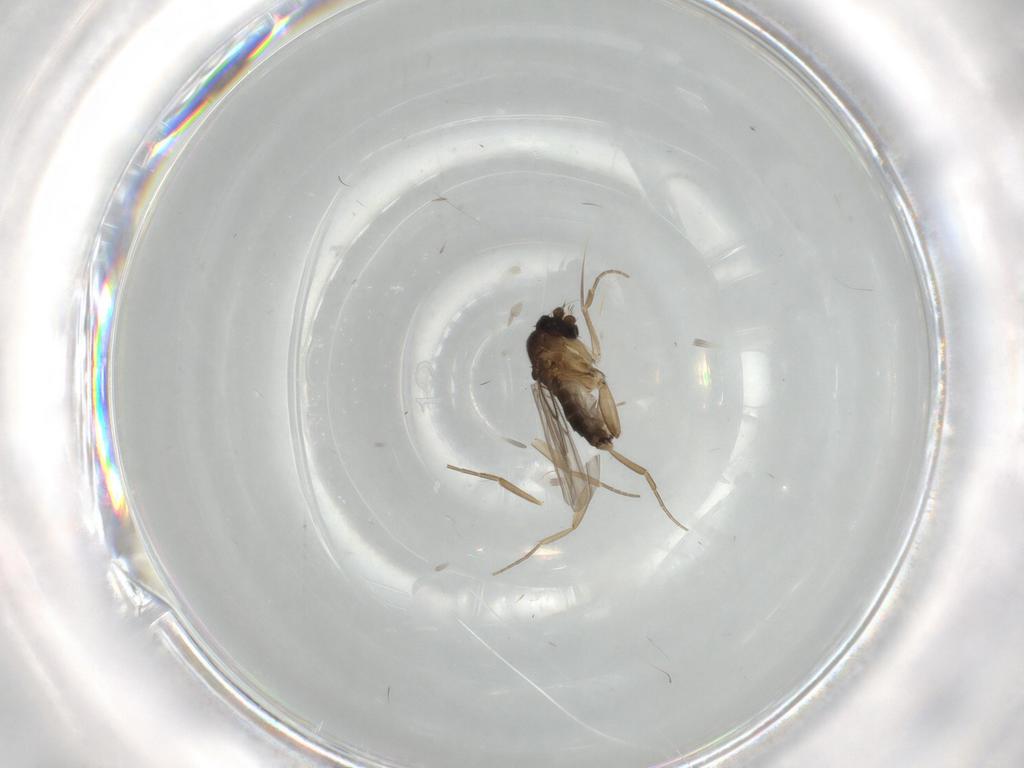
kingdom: Animalia
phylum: Arthropoda
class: Insecta
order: Diptera
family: Phoridae
